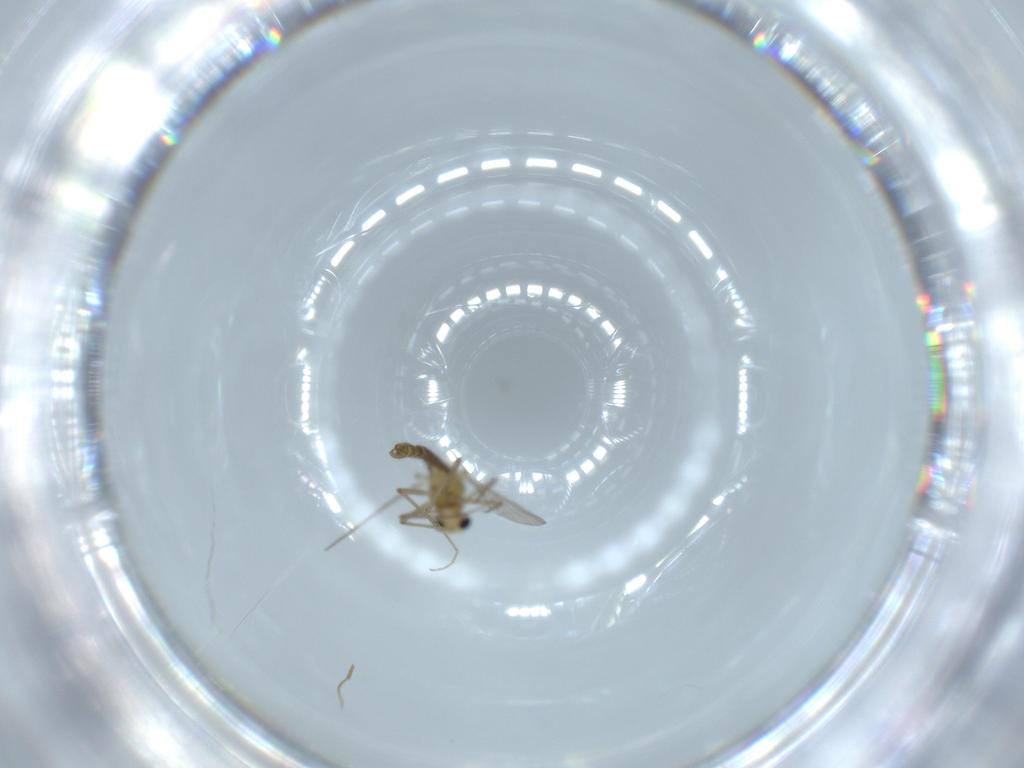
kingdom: Animalia
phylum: Arthropoda
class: Insecta
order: Diptera
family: Chironomidae
